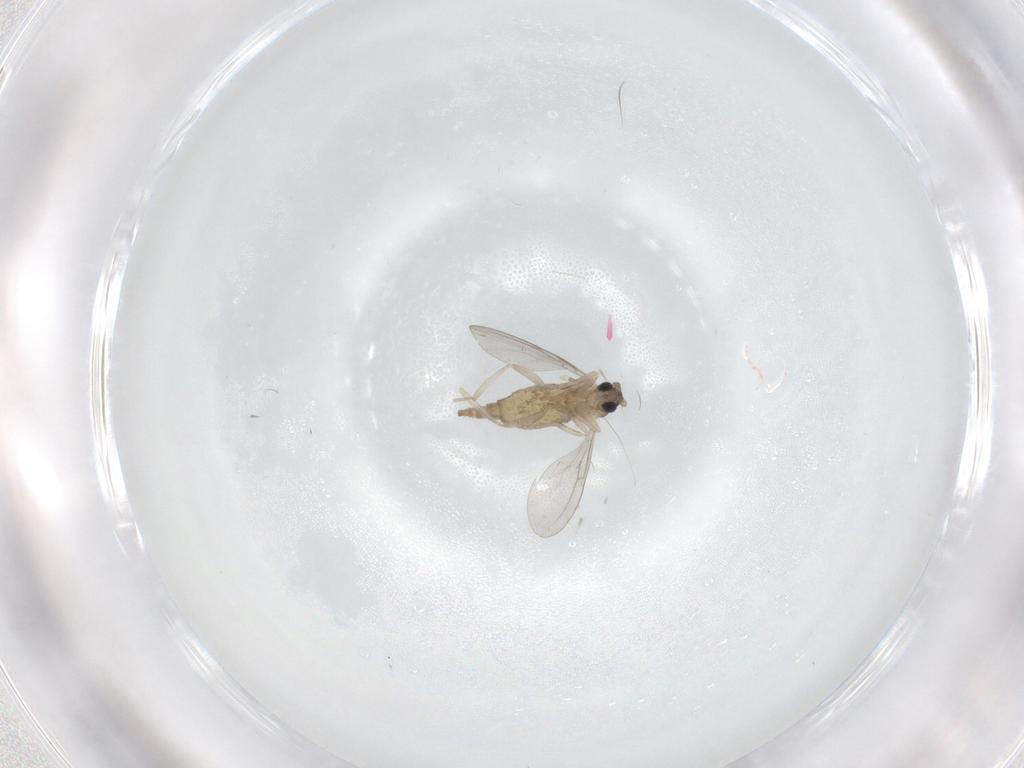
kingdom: Animalia
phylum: Arthropoda
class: Insecta
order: Diptera
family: Cecidomyiidae
